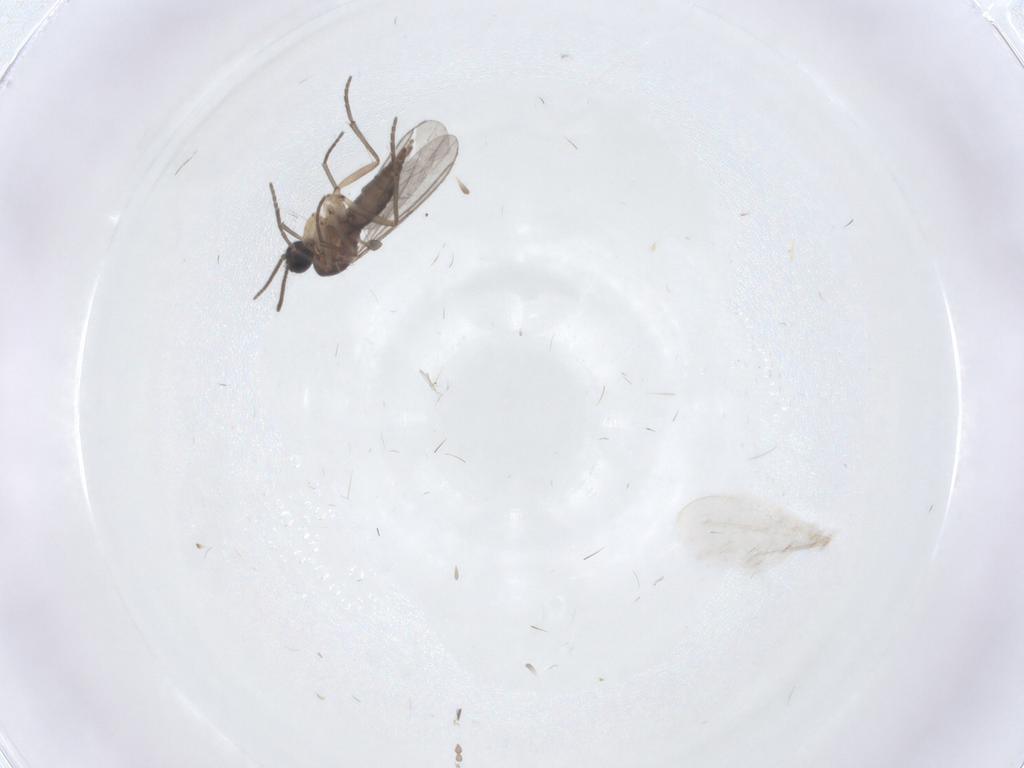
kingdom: Animalia
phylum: Arthropoda
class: Insecta
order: Diptera
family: Cecidomyiidae
